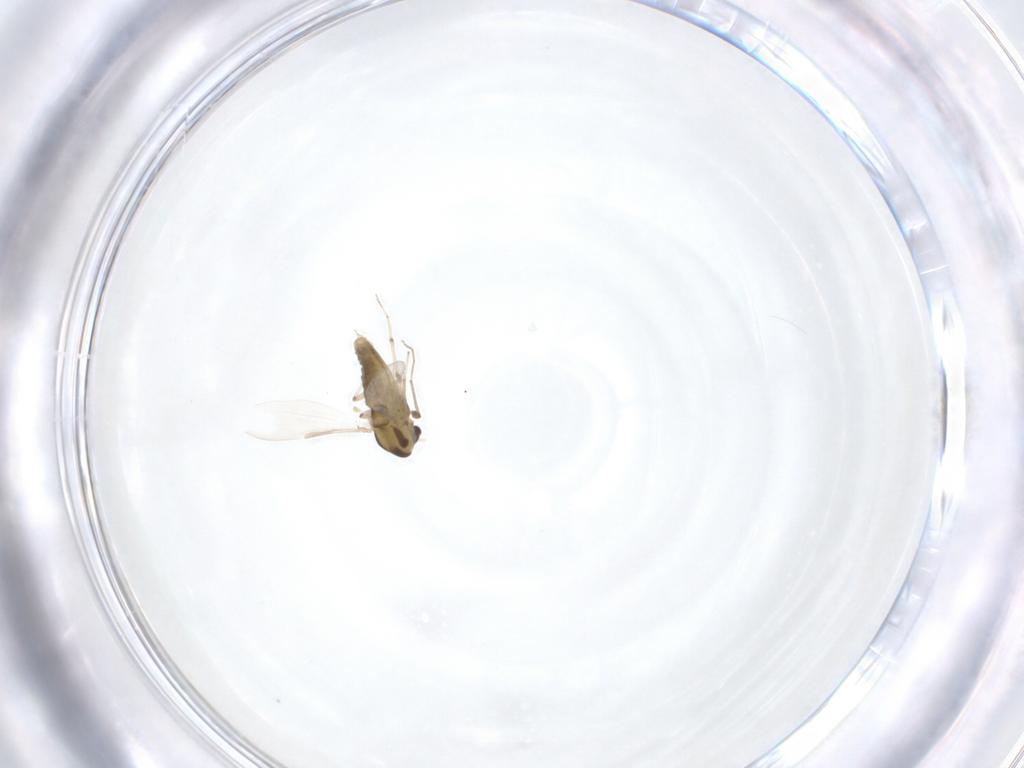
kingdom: Animalia
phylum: Arthropoda
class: Insecta
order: Diptera
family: Chironomidae
